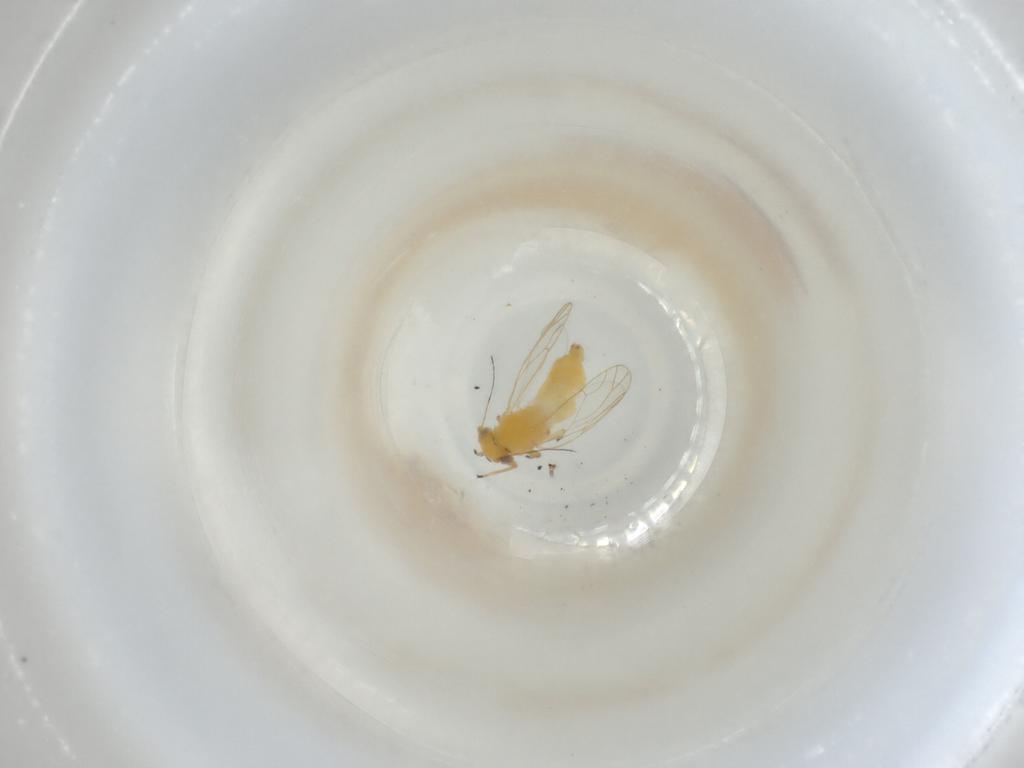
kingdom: Animalia
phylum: Arthropoda
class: Insecta
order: Coleoptera
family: Curculionidae
